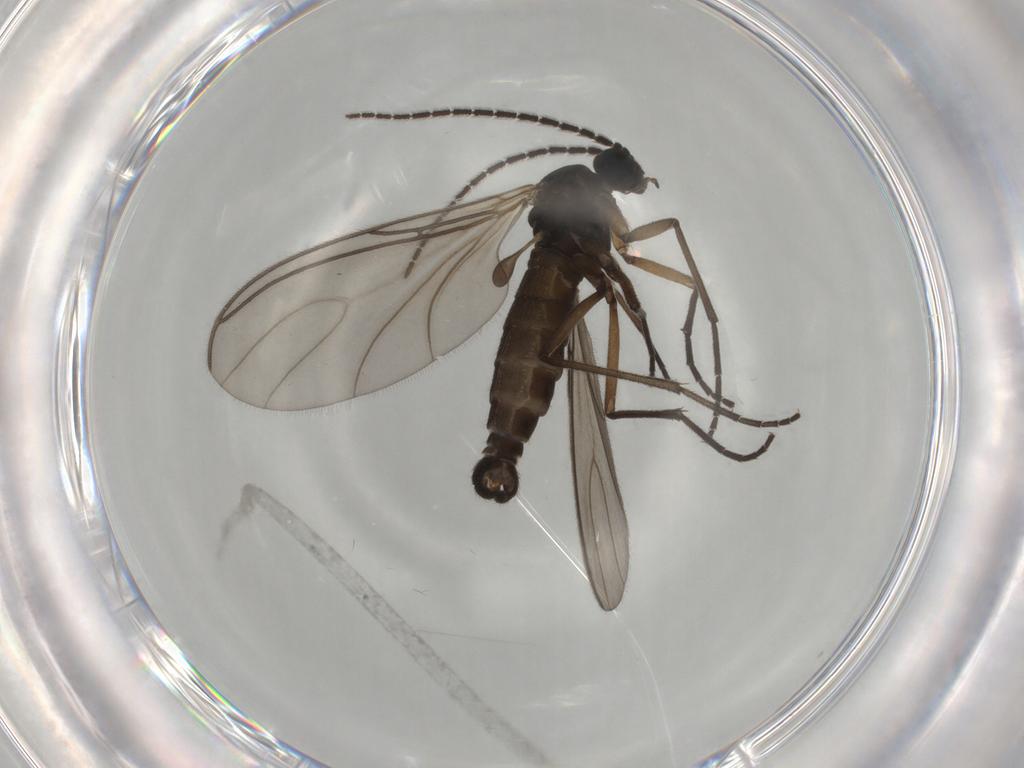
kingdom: Animalia
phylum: Arthropoda
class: Insecta
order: Diptera
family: Sciaridae
